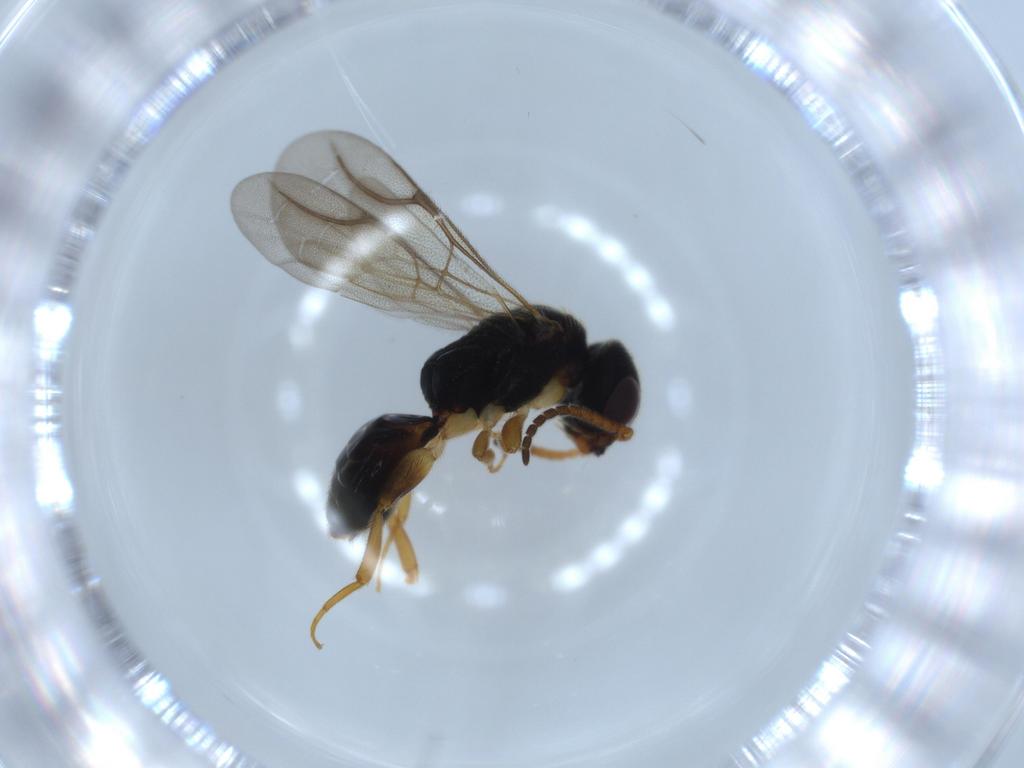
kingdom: Animalia
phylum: Arthropoda
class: Insecta
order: Hymenoptera
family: Bethylidae
